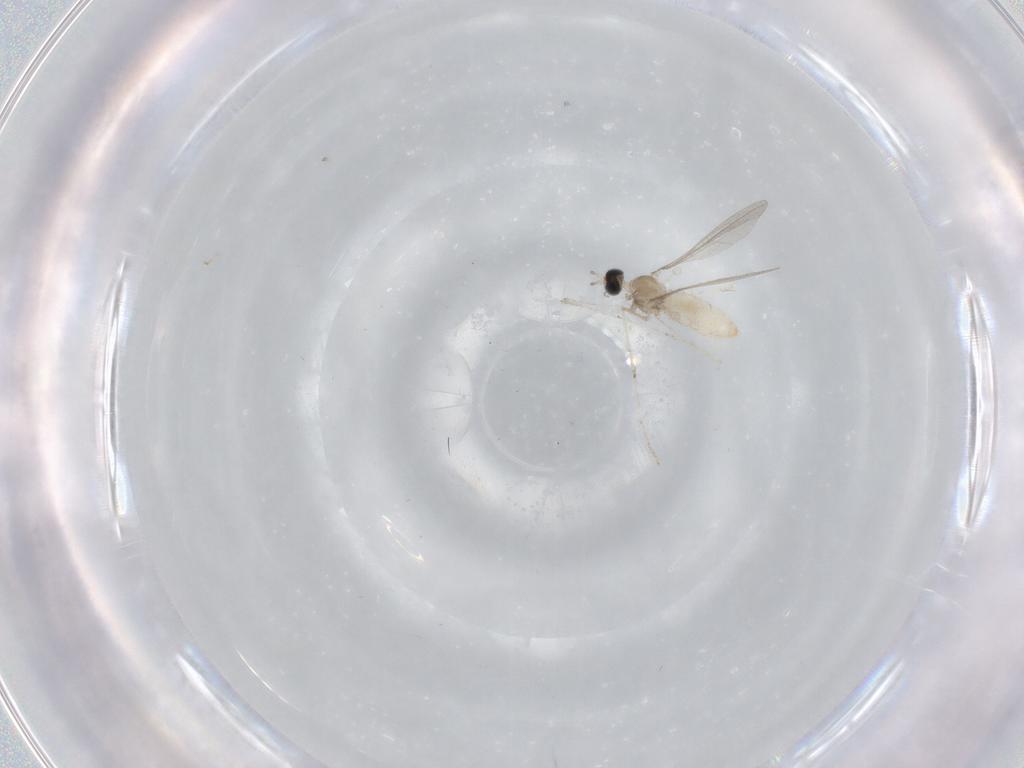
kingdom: Animalia
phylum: Arthropoda
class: Insecta
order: Diptera
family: Cecidomyiidae
